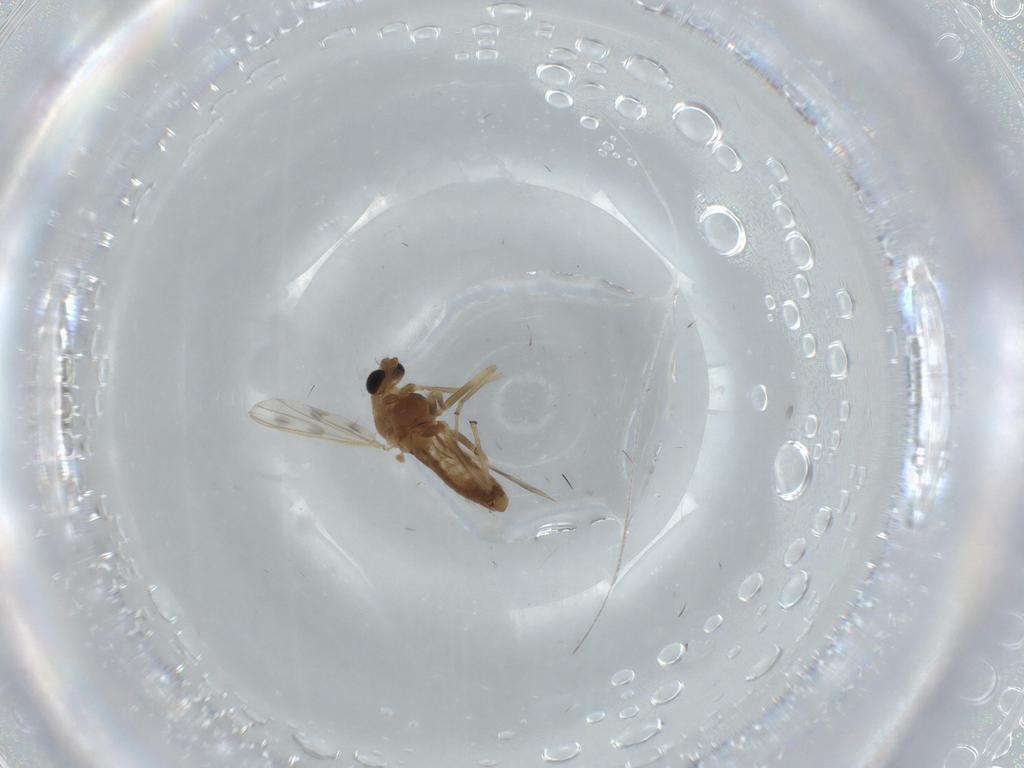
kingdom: Animalia
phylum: Arthropoda
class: Insecta
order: Diptera
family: Chironomidae
